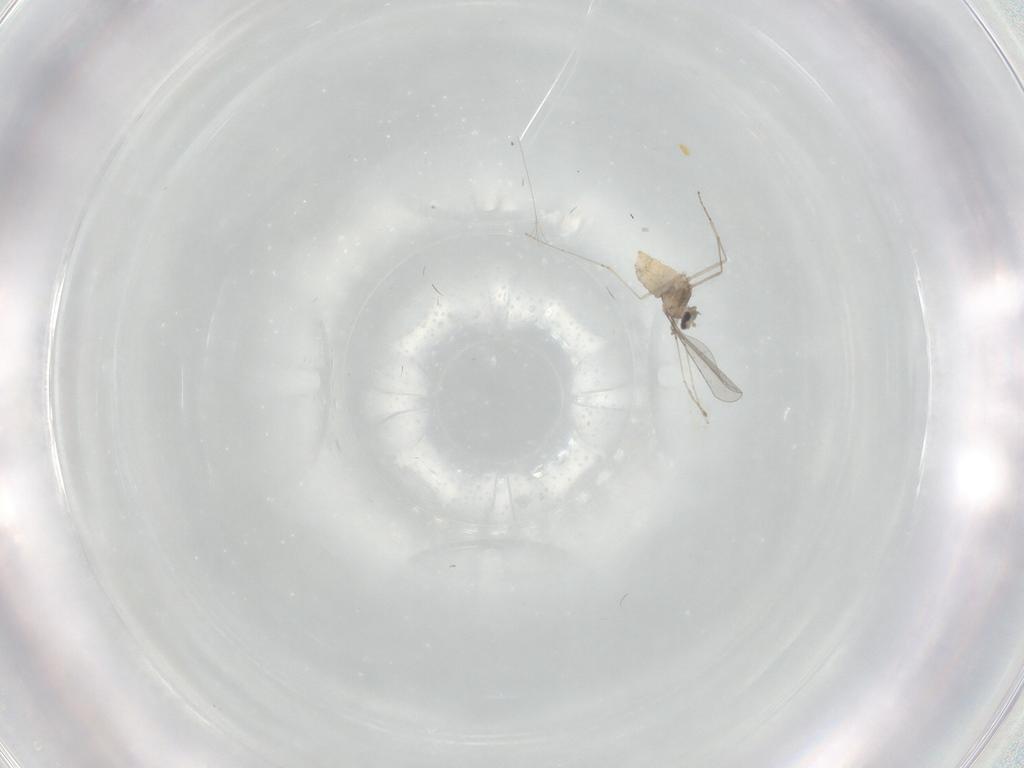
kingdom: Animalia
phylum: Arthropoda
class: Insecta
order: Diptera
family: Cecidomyiidae
